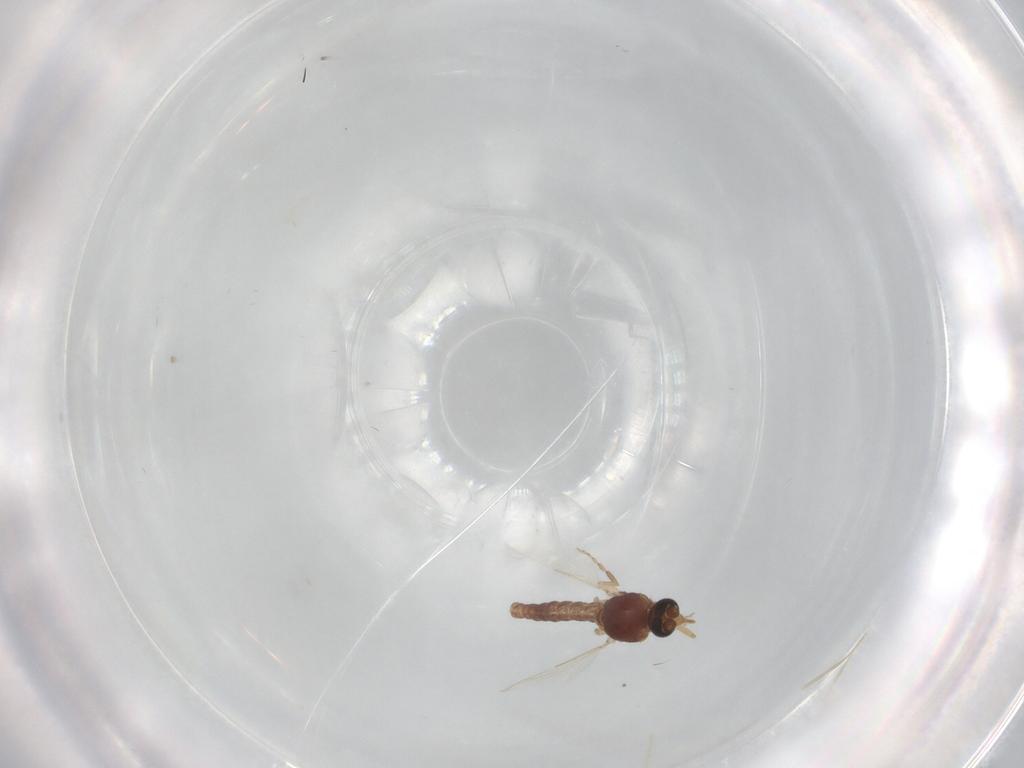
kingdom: Animalia
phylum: Arthropoda
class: Insecta
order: Diptera
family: Ceratopogonidae
